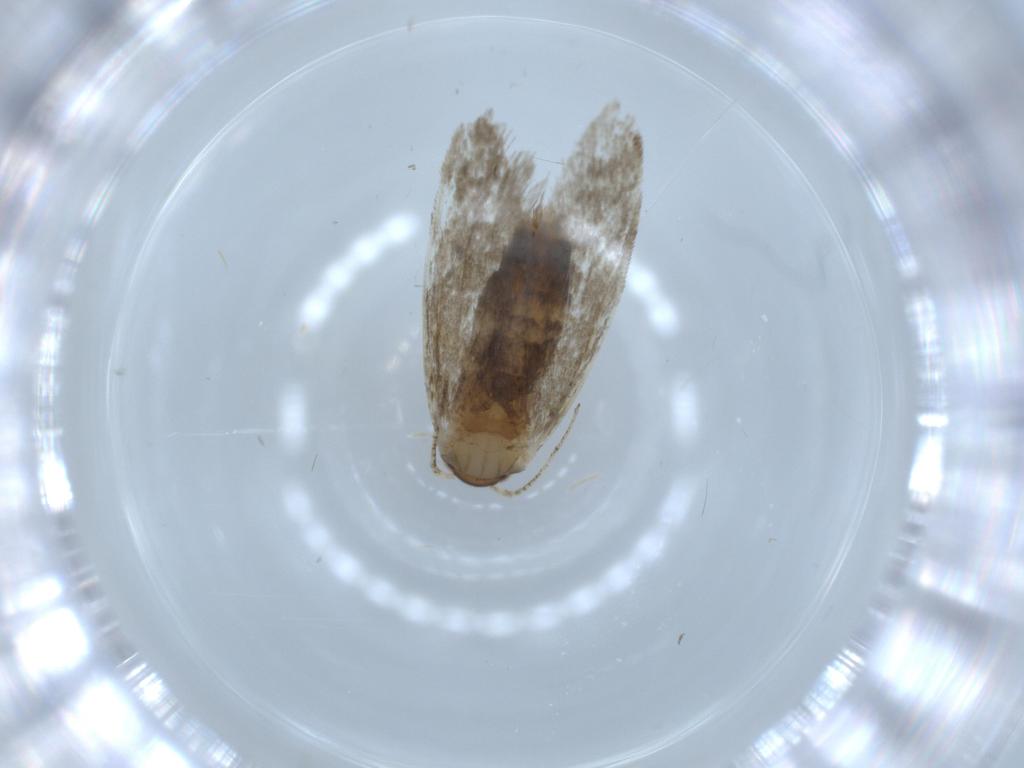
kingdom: Animalia
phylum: Arthropoda
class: Insecta
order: Lepidoptera
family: Tineidae
